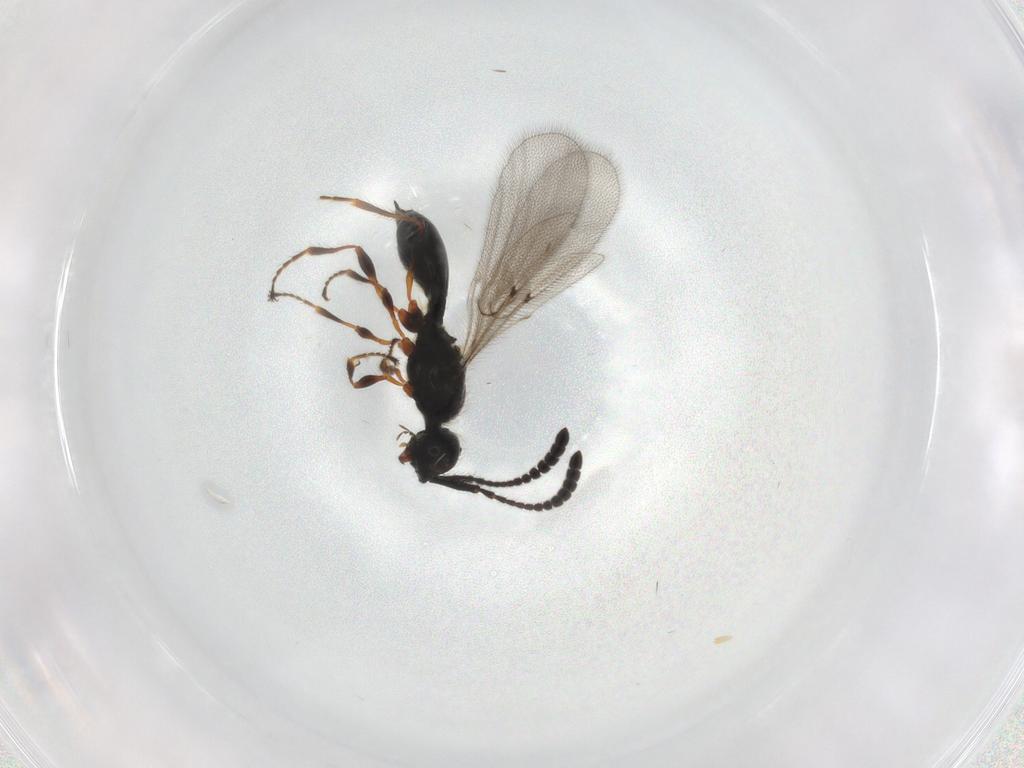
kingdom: Animalia
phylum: Arthropoda
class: Insecta
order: Hymenoptera
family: Diapriidae
